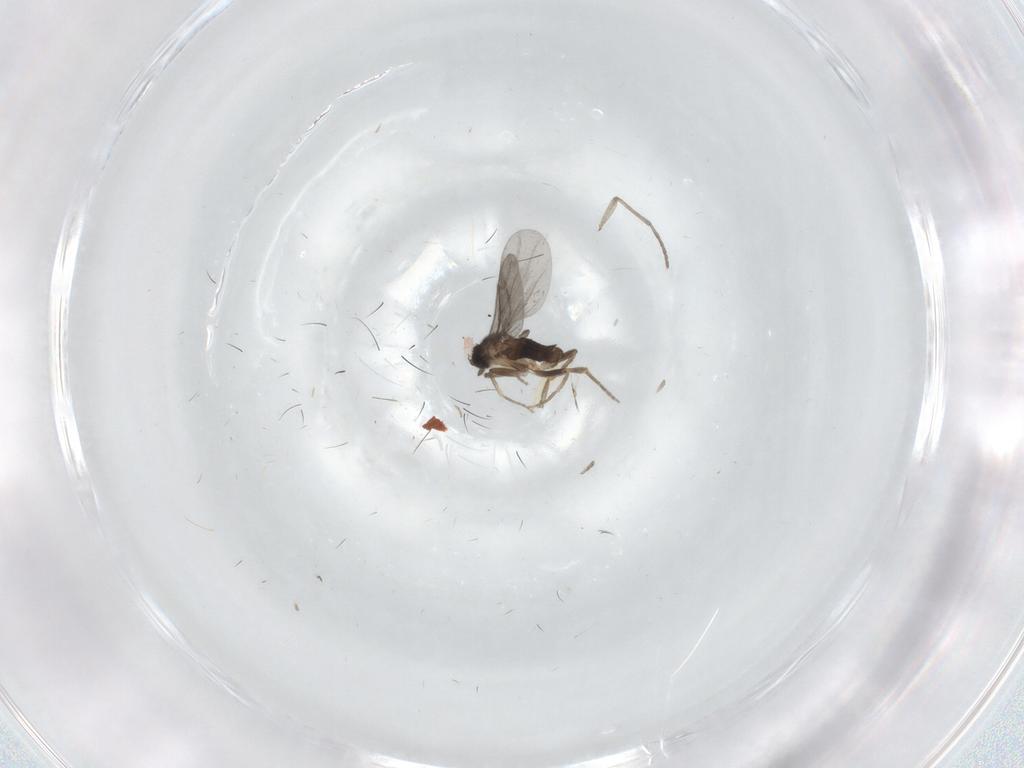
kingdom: Animalia
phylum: Arthropoda
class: Insecta
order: Diptera
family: Sciaridae
